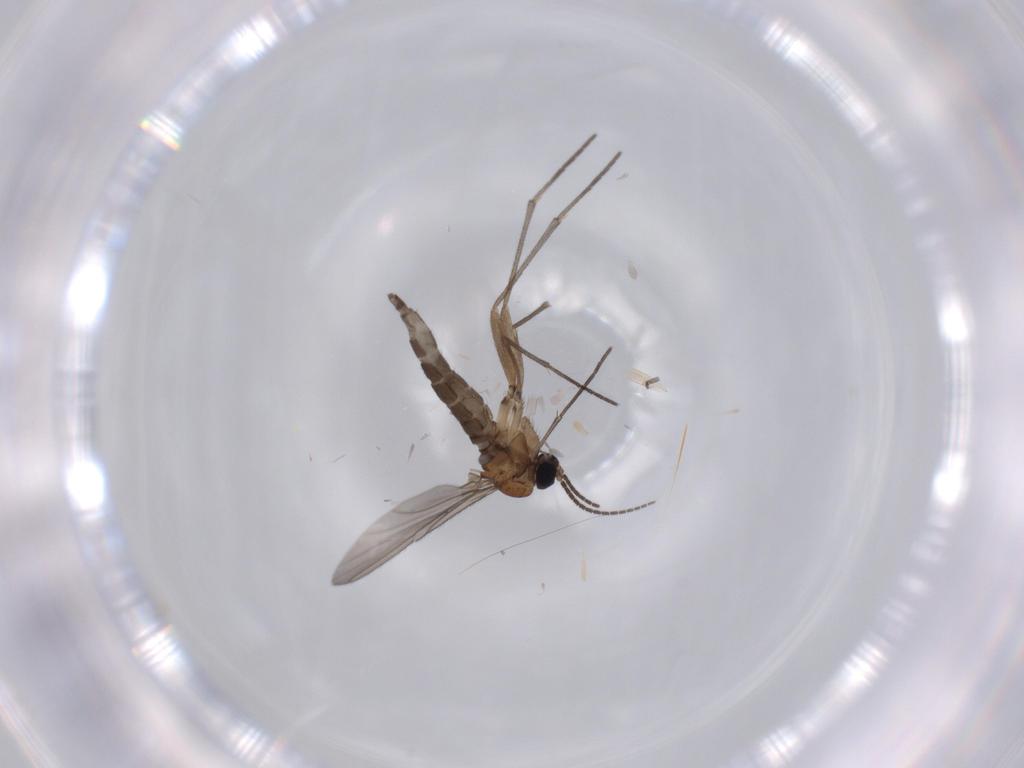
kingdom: Animalia
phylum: Arthropoda
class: Insecta
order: Diptera
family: Sciaridae
